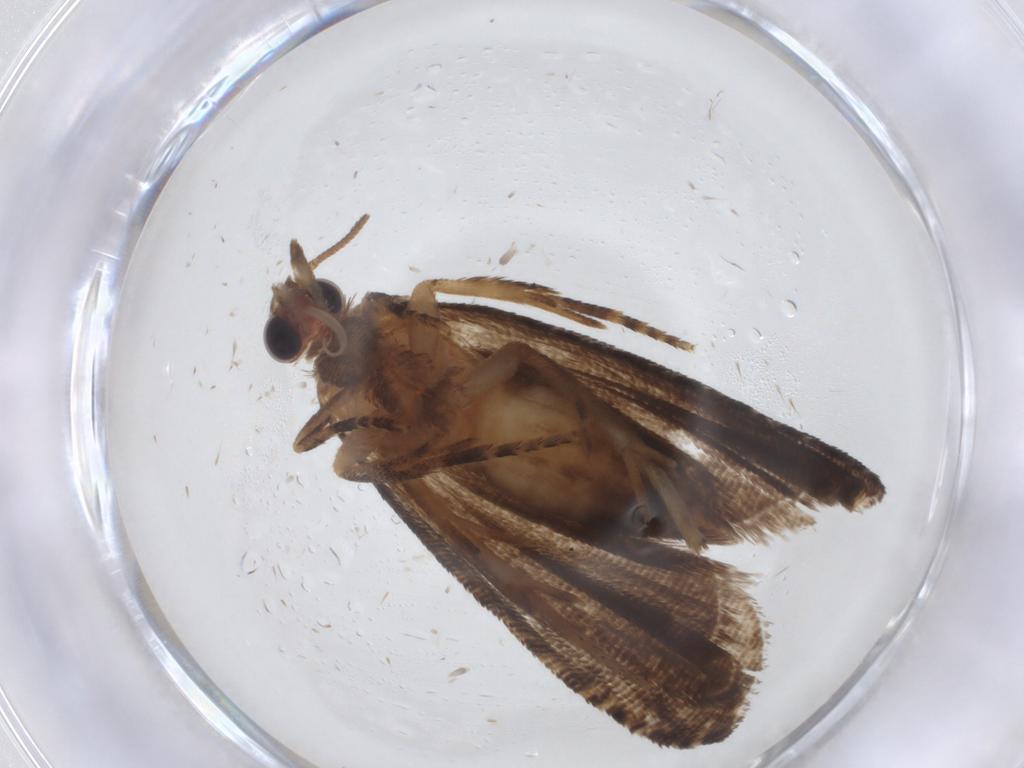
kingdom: Animalia
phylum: Arthropoda
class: Insecta
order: Lepidoptera
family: Tortricidae
